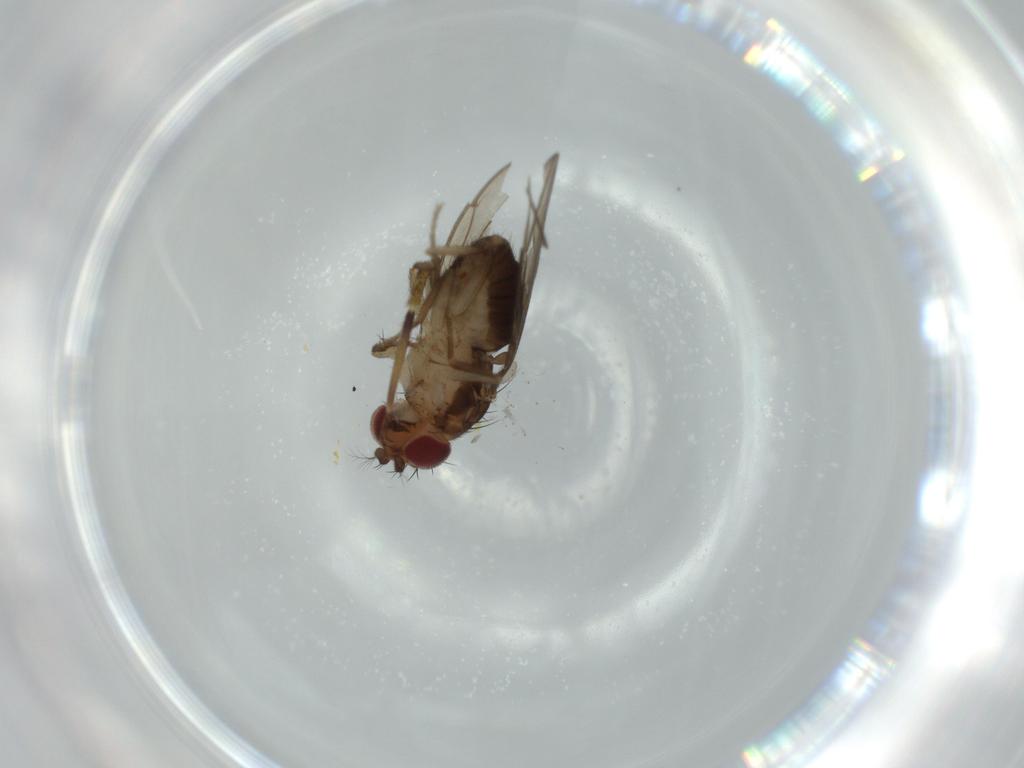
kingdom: Animalia
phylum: Arthropoda
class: Insecta
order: Diptera
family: Drosophilidae
